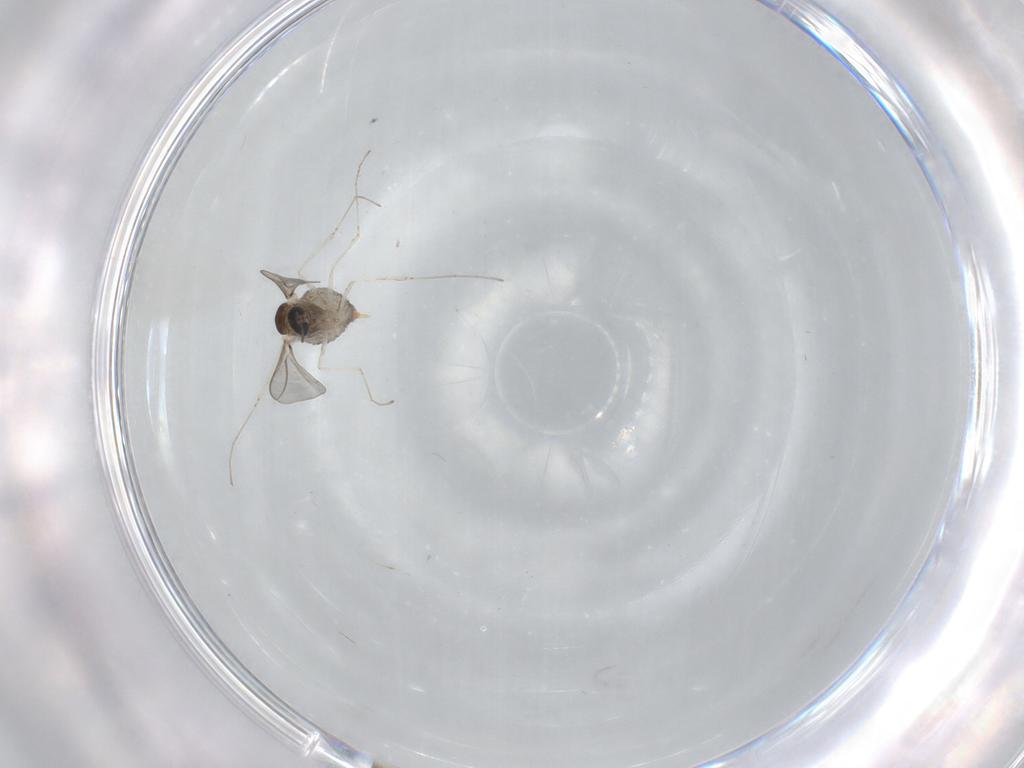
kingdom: Animalia
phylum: Arthropoda
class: Insecta
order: Diptera
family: Cecidomyiidae
